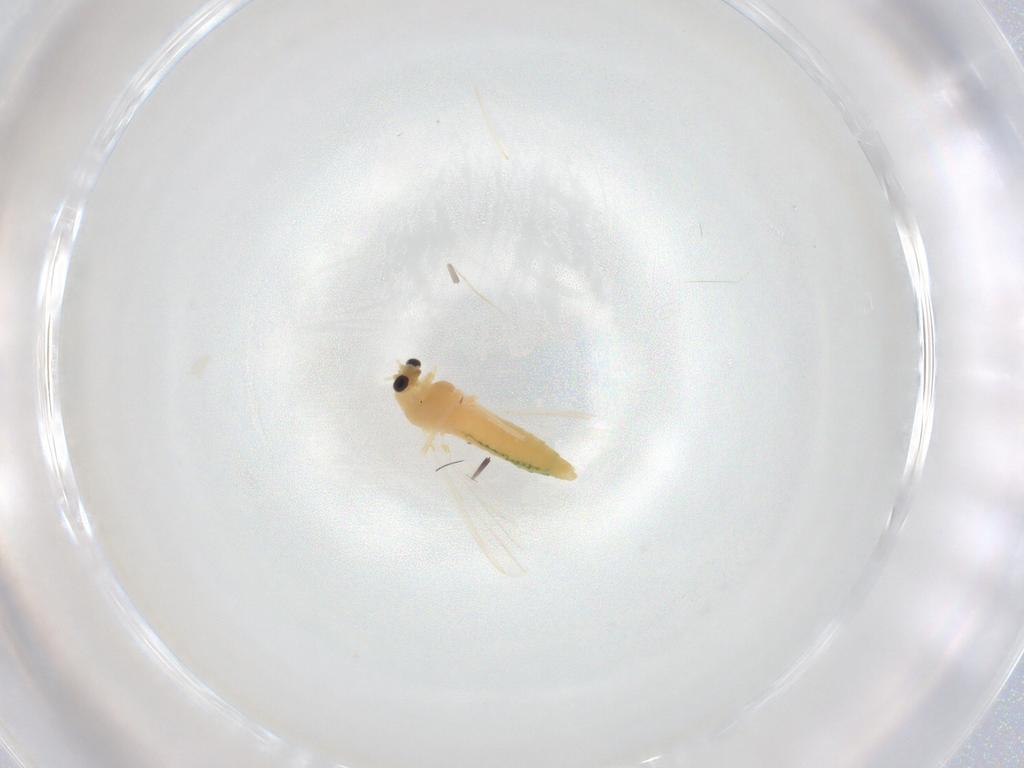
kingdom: Animalia
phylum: Arthropoda
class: Insecta
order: Diptera
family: Chironomidae
